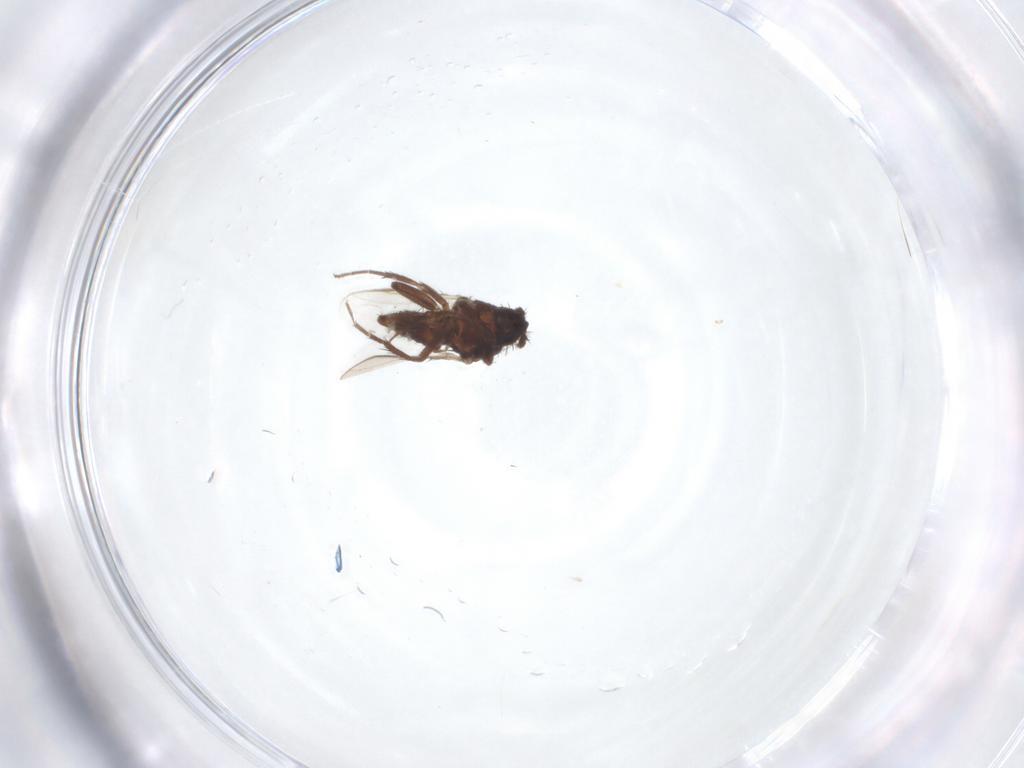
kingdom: Animalia
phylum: Arthropoda
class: Insecta
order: Diptera
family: Sphaeroceridae
